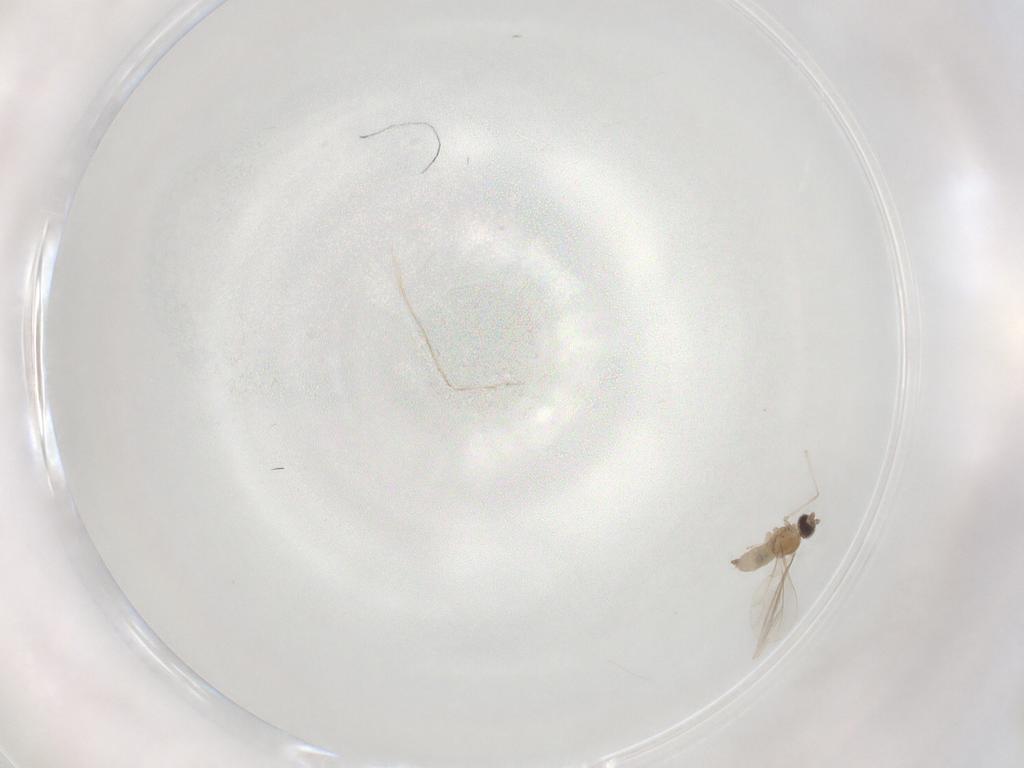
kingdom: Animalia
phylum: Arthropoda
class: Insecta
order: Diptera
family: Cecidomyiidae
